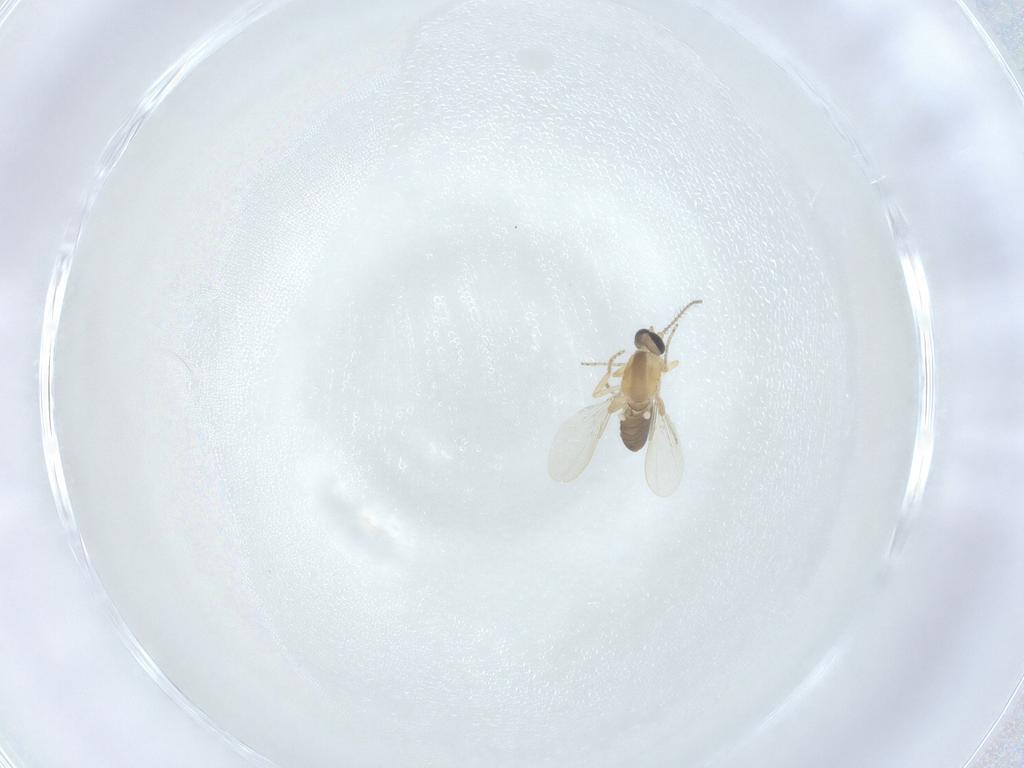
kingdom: Animalia
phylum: Arthropoda
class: Insecta
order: Diptera
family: Ceratopogonidae
